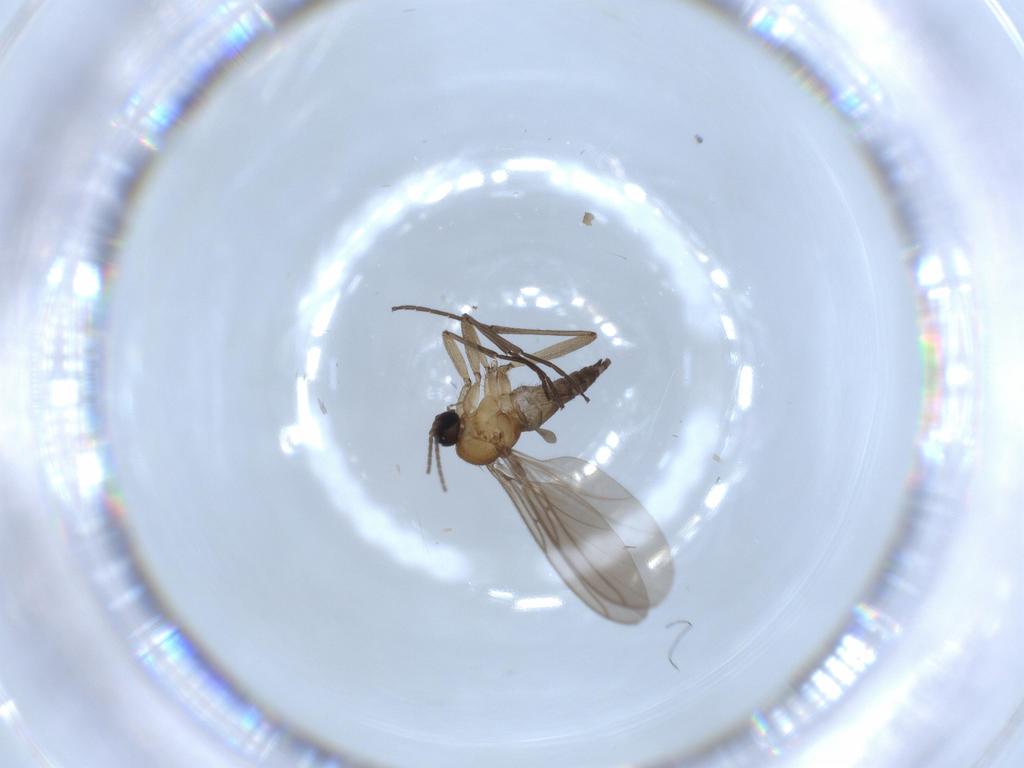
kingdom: Animalia
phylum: Arthropoda
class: Insecta
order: Diptera
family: Sciaridae
